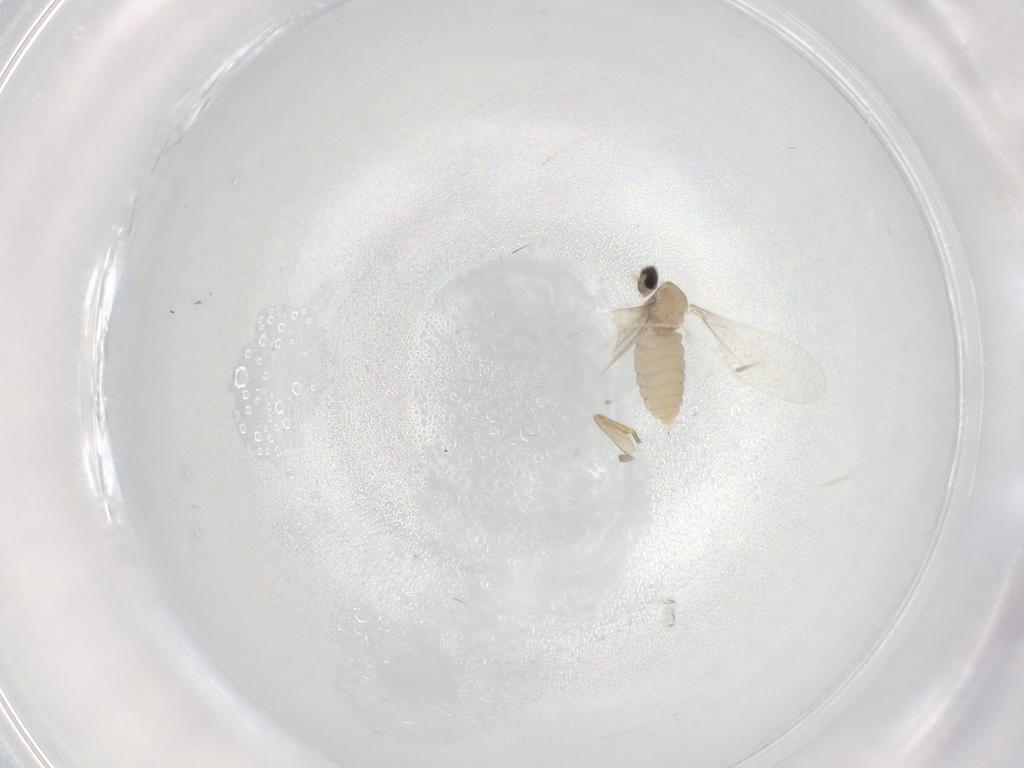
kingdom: Animalia
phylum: Arthropoda
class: Insecta
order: Diptera
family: Cecidomyiidae
